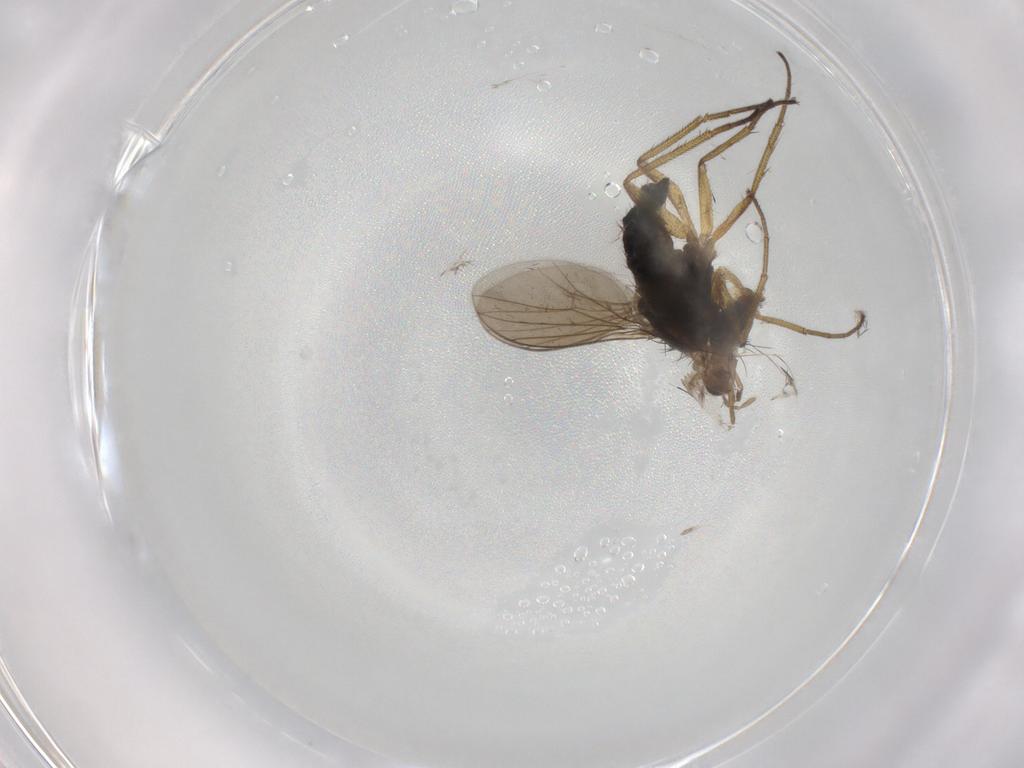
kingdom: Animalia
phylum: Arthropoda
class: Insecta
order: Diptera
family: Dolichopodidae
